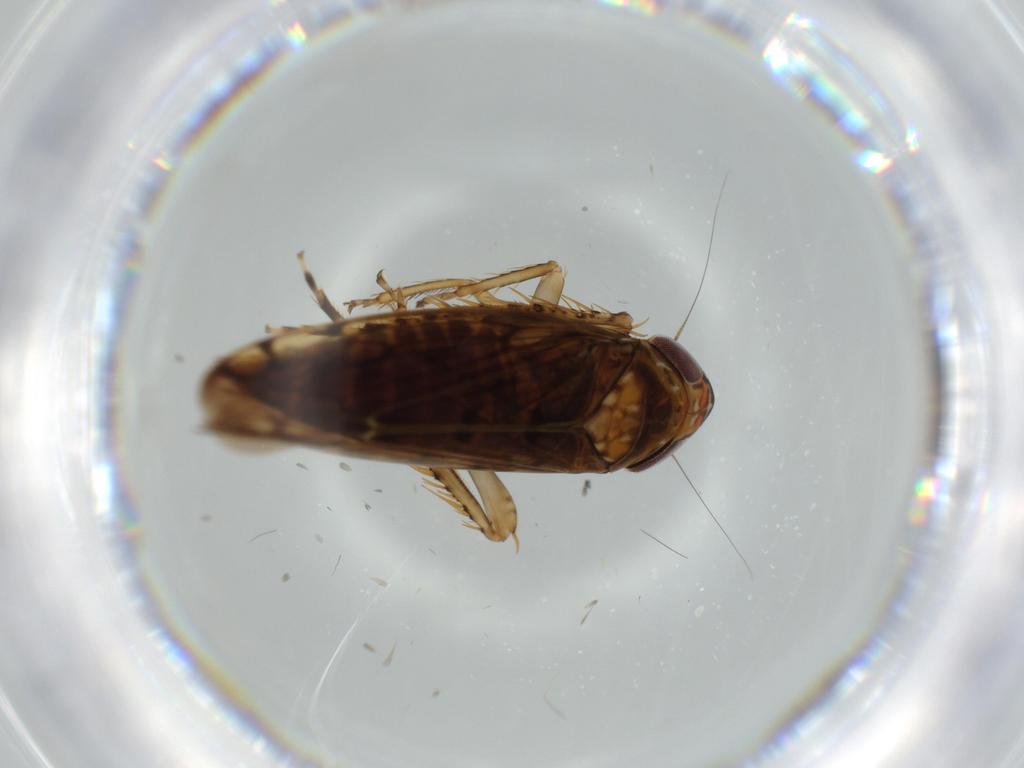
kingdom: Animalia
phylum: Arthropoda
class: Insecta
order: Hemiptera
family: Cicadellidae
